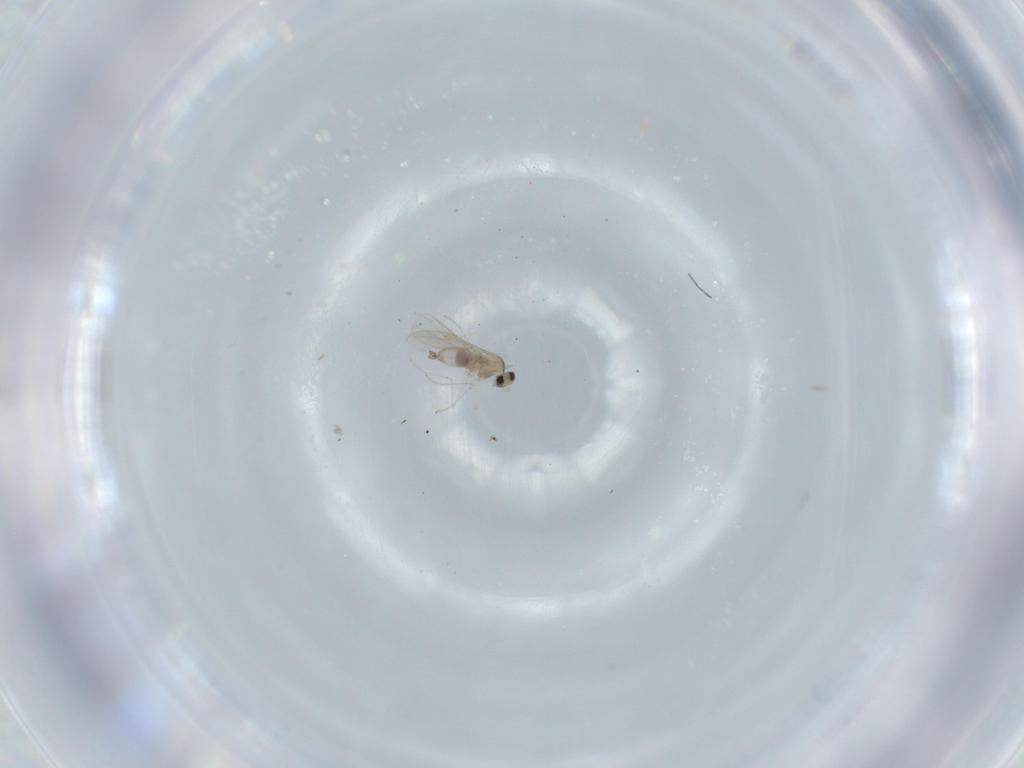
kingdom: Animalia
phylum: Arthropoda
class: Insecta
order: Diptera
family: Cecidomyiidae
